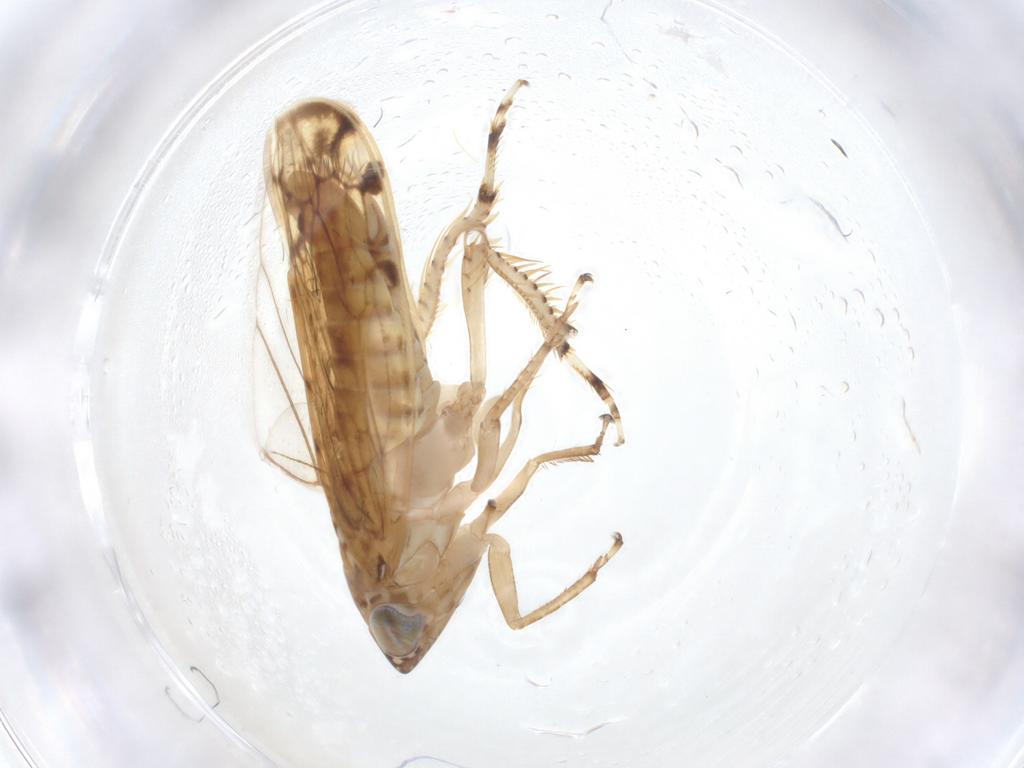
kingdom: Animalia
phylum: Arthropoda
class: Insecta
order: Hemiptera
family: Cicadellidae
